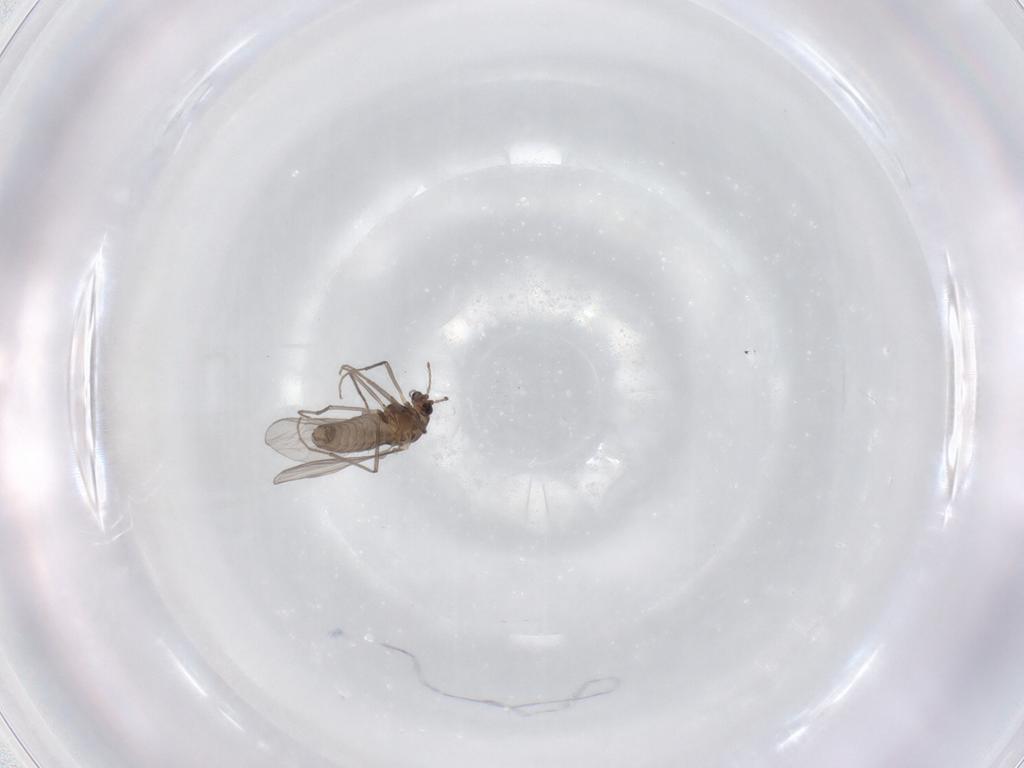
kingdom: Animalia
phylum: Arthropoda
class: Insecta
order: Diptera
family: Chironomidae
